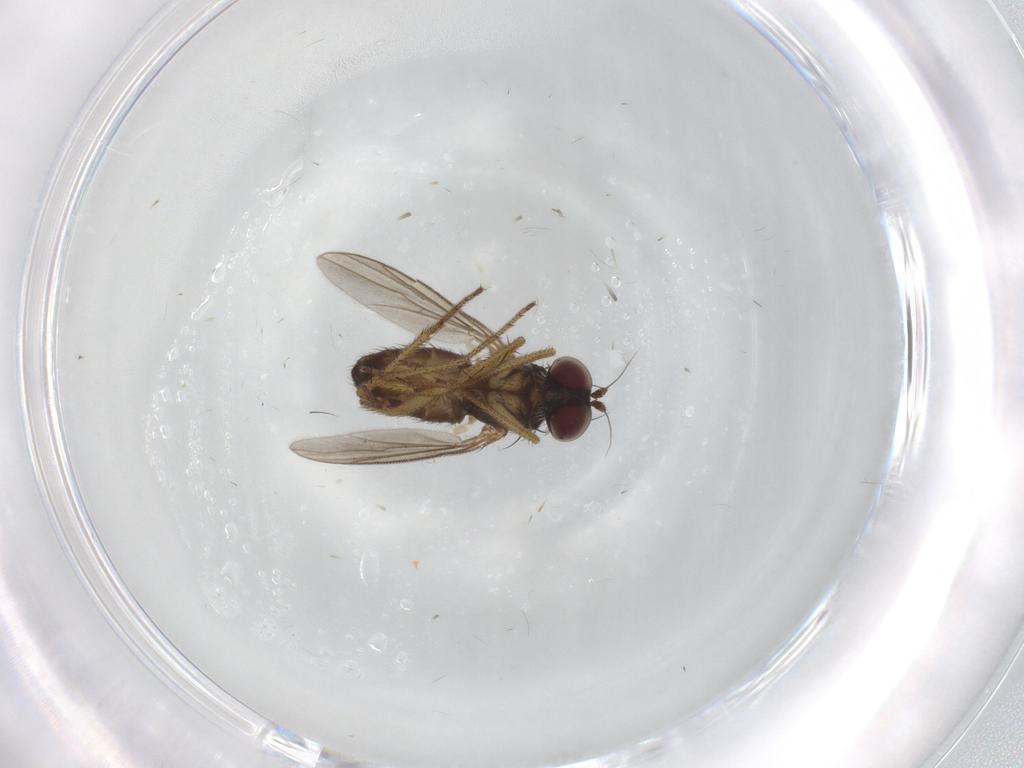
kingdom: Animalia
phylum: Arthropoda
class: Insecta
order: Diptera
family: Dolichopodidae
